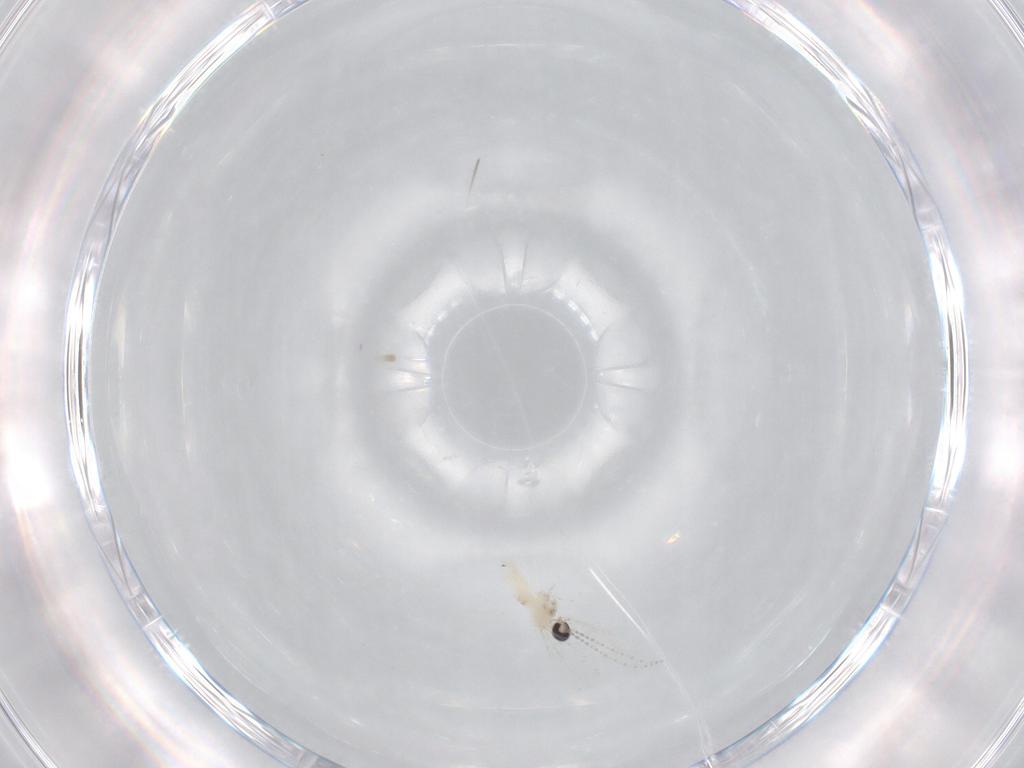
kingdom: Animalia
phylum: Arthropoda
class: Insecta
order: Diptera
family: Cecidomyiidae
